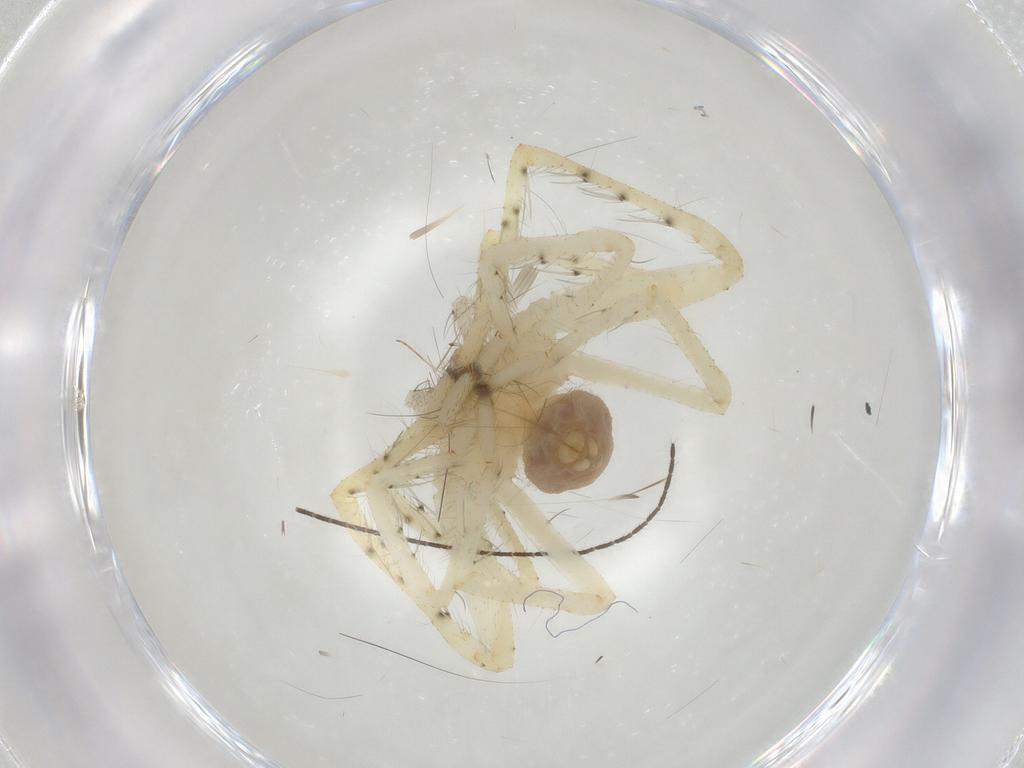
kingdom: Animalia
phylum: Arthropoda
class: Arachnida
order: Araneae
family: Sparassidae
